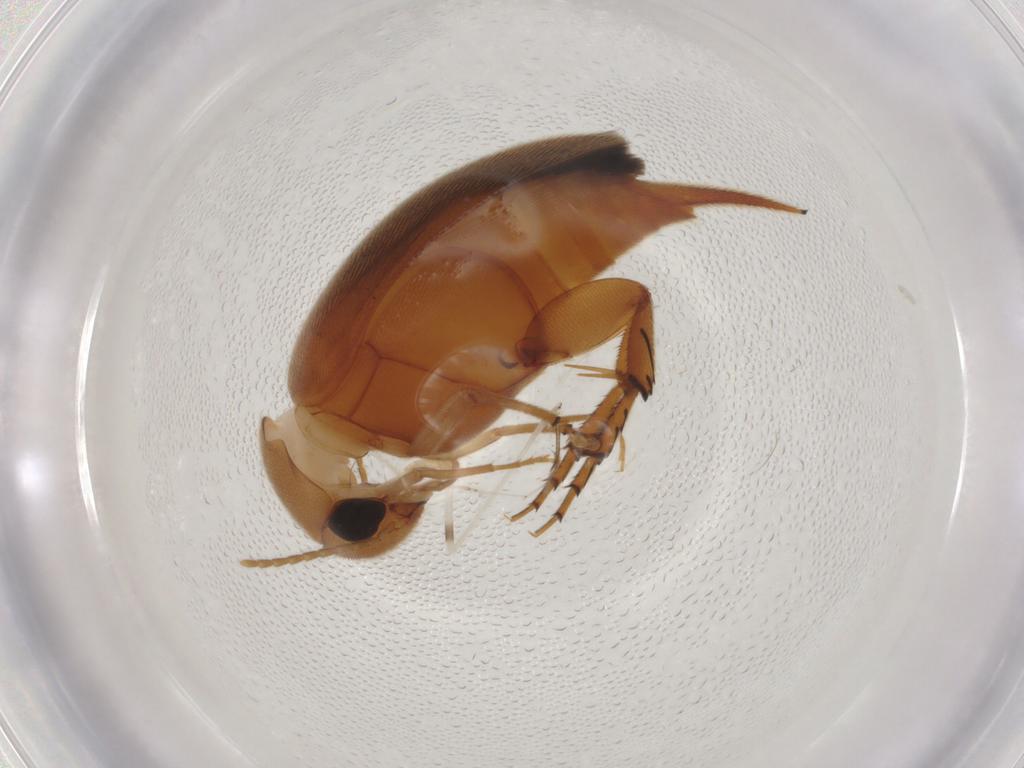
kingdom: Animalia
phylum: Arthropoda
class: Insecta
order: Coleoptera
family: Mordellidae
